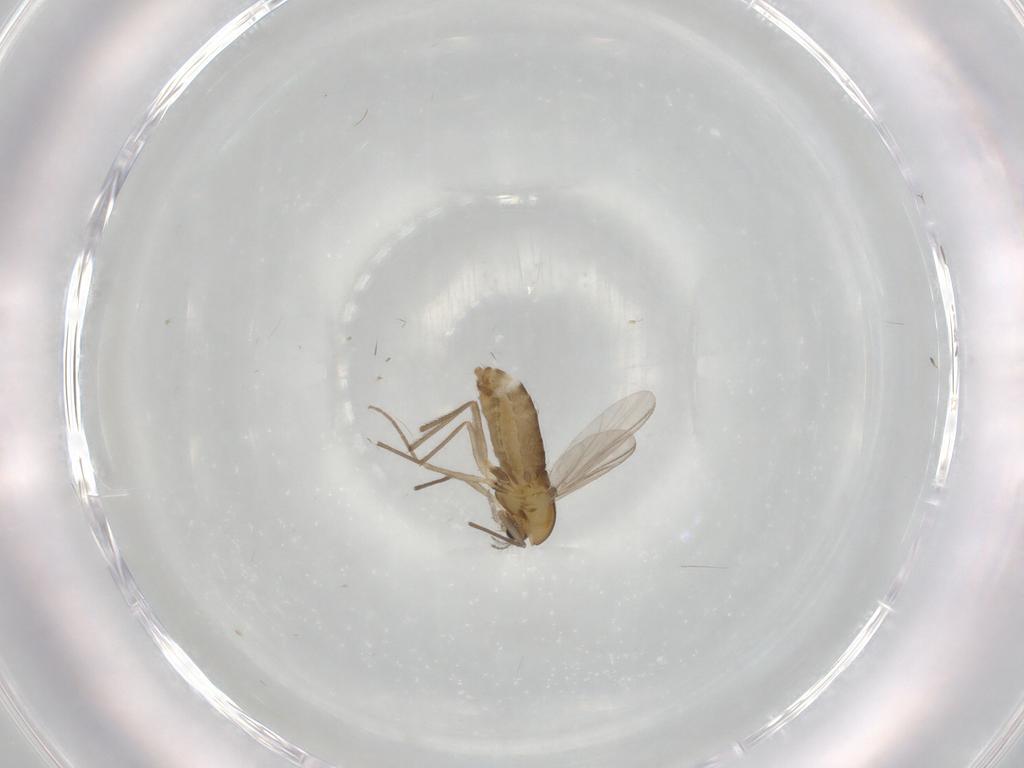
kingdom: Animalia
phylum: Arthropoda
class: Insecta
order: Diptera
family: Chironomidae
